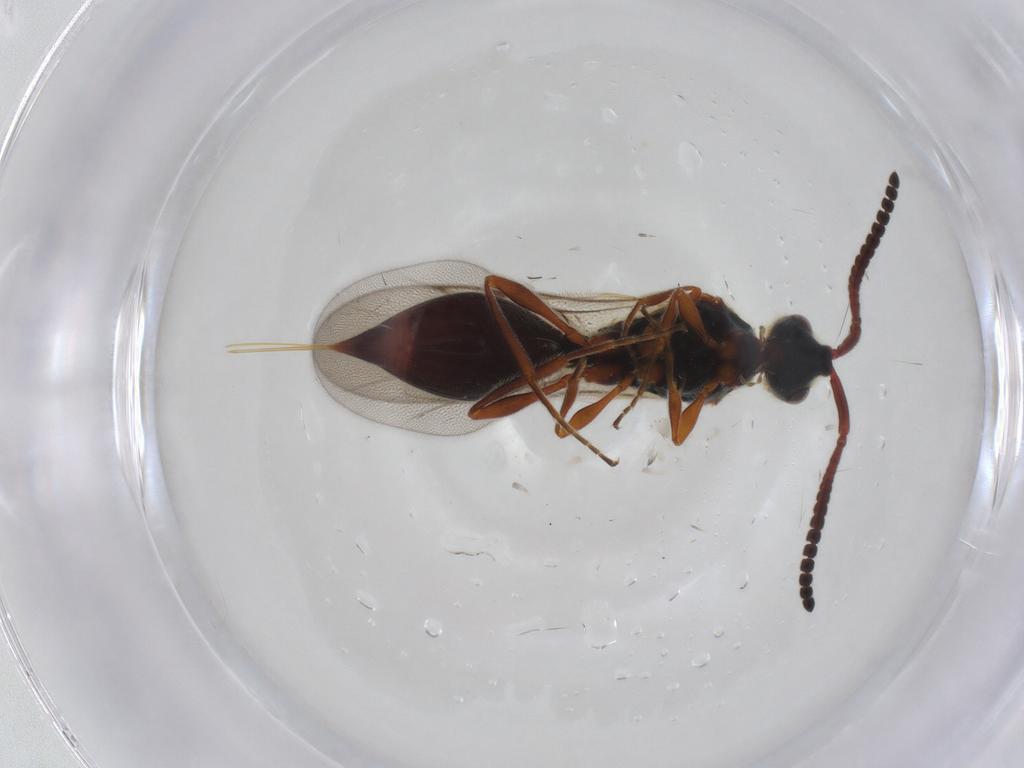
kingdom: Animalia
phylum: Arthropoda
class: Insecta
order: Hymenoptera
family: Diapriidae
